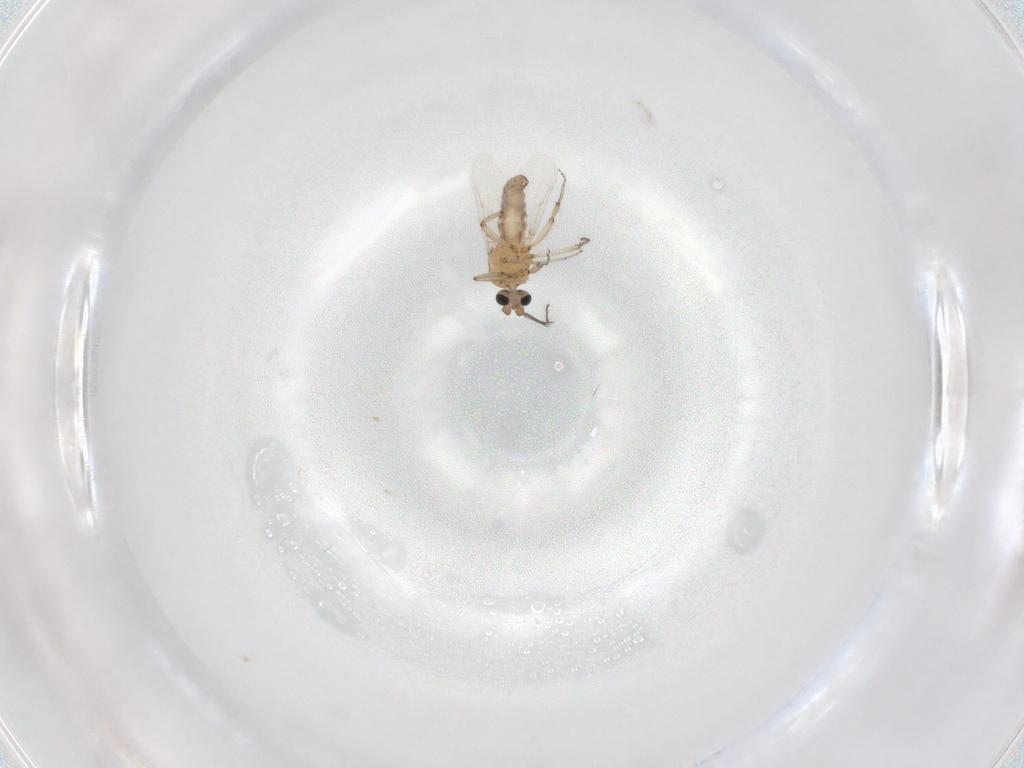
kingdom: Animalia
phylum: Arthropoda
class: Insecta
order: Diptera
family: Ceratopogonidae
